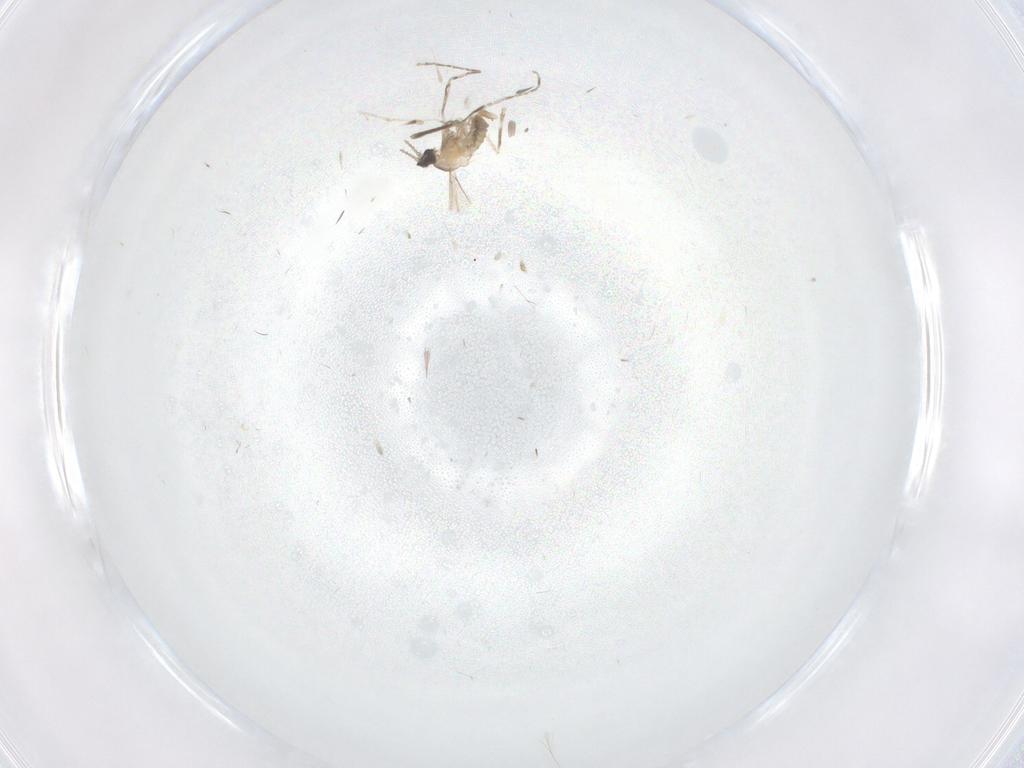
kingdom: Animalia
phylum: Arthropoda
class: Insecta
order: Diptera
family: Cecidomyiidae
